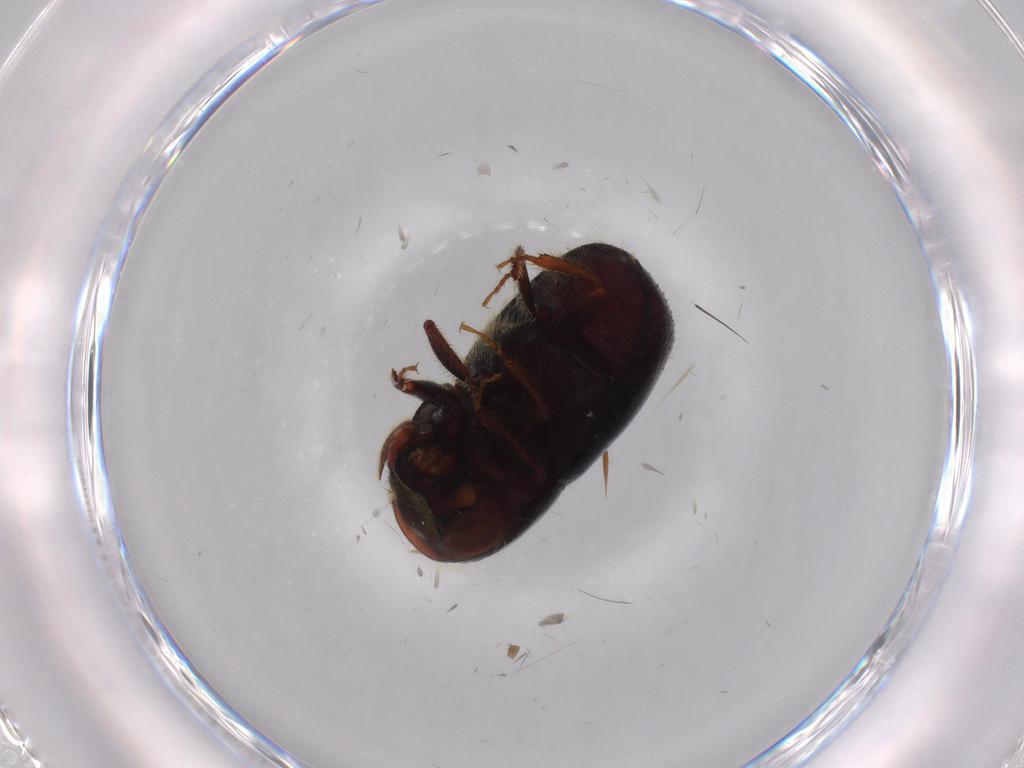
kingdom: Animalia
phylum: Arthropoda
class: Insecta
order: Coleoptera
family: Curculionidae
